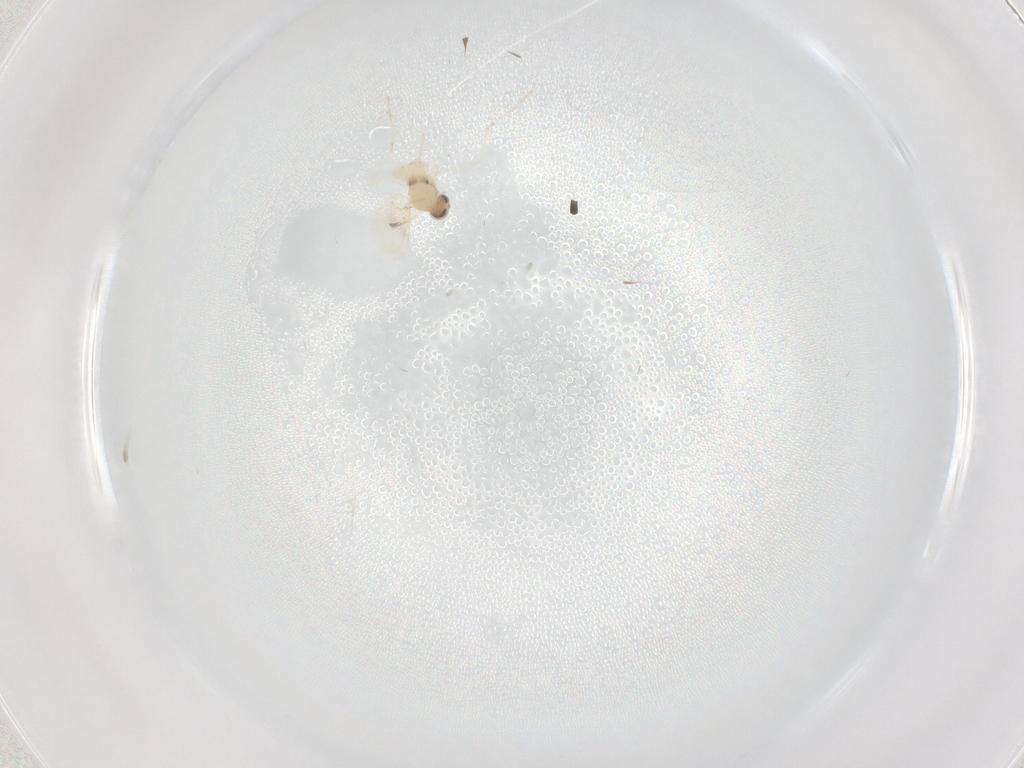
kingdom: Animalia
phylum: Arthropoda
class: Insecta
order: Diptera
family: Cecidomyiidae
